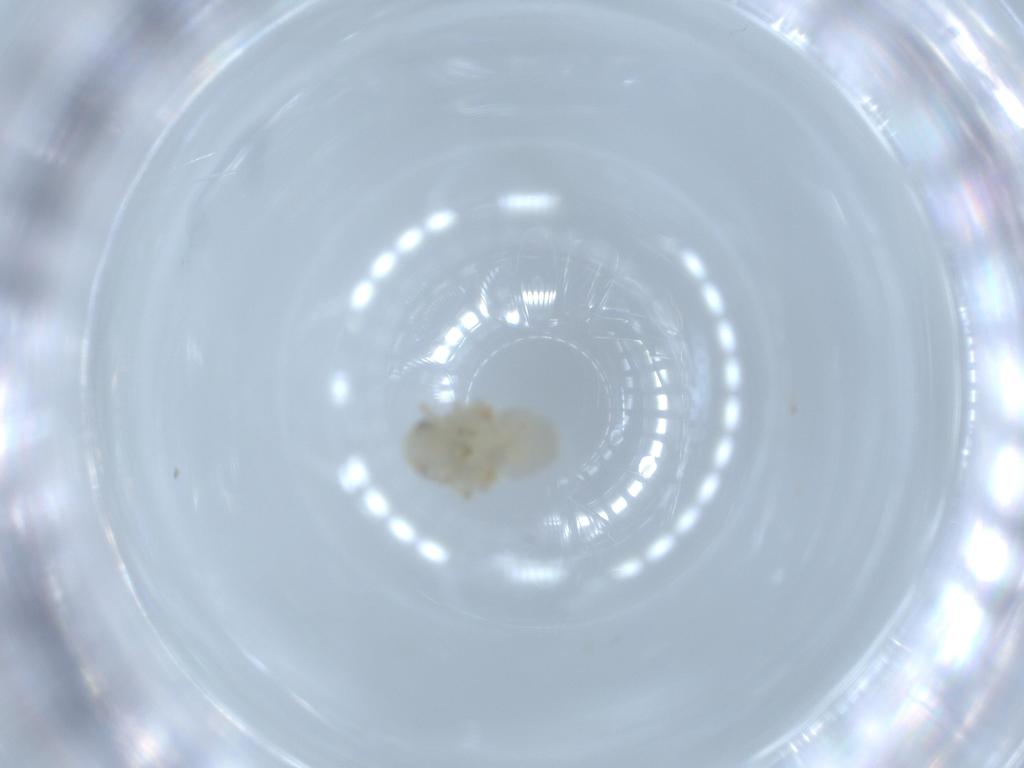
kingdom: Animalia
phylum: Arthropoda
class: Insecta
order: Hemiptera
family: Nogodinidae
